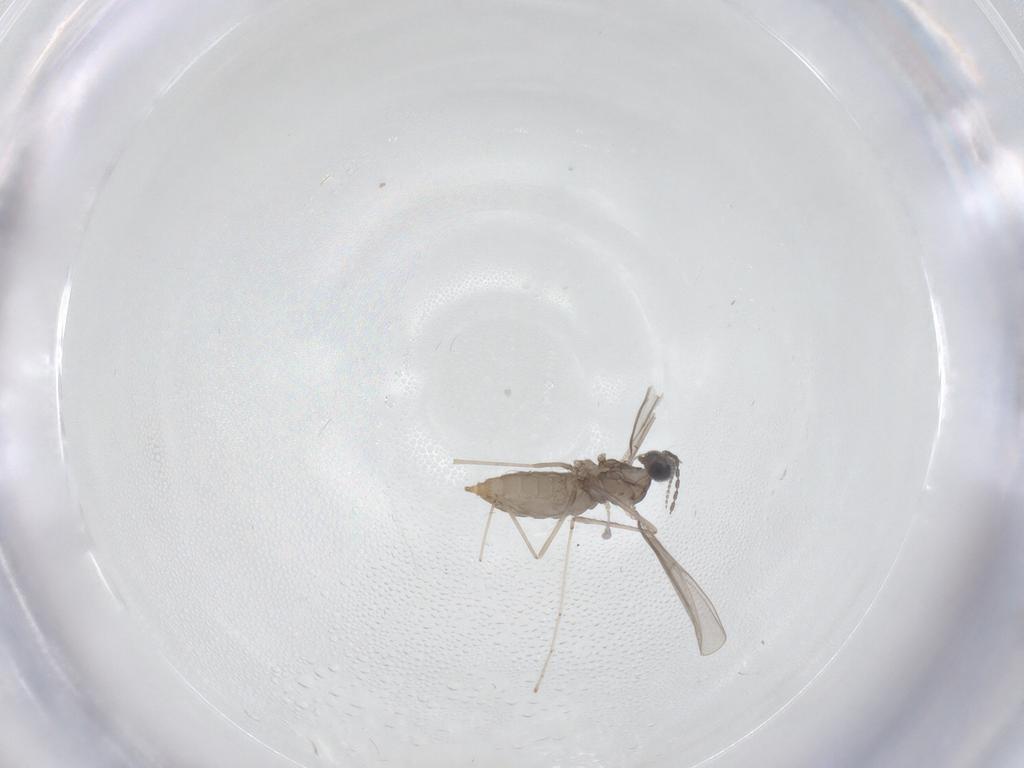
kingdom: Animalia
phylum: Arthropoda
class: Insecta
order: Diptera
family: Cecidomyiidae
